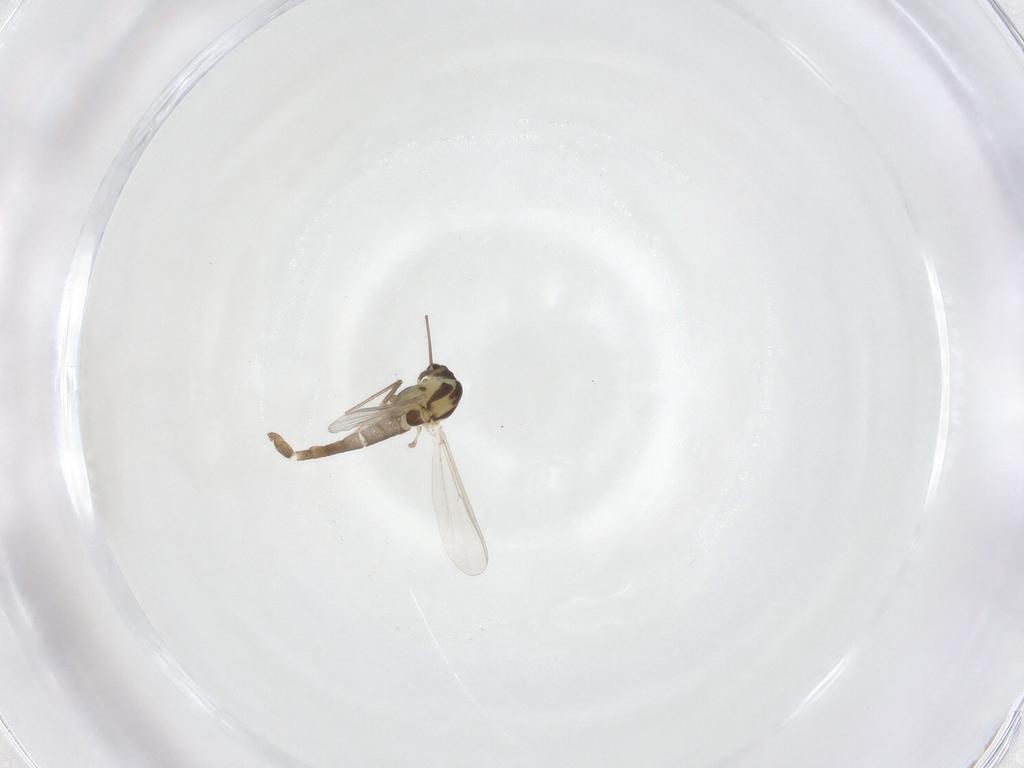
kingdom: Animalia
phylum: Arthropoda
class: Insecta
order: Diptera
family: Chironomidae
